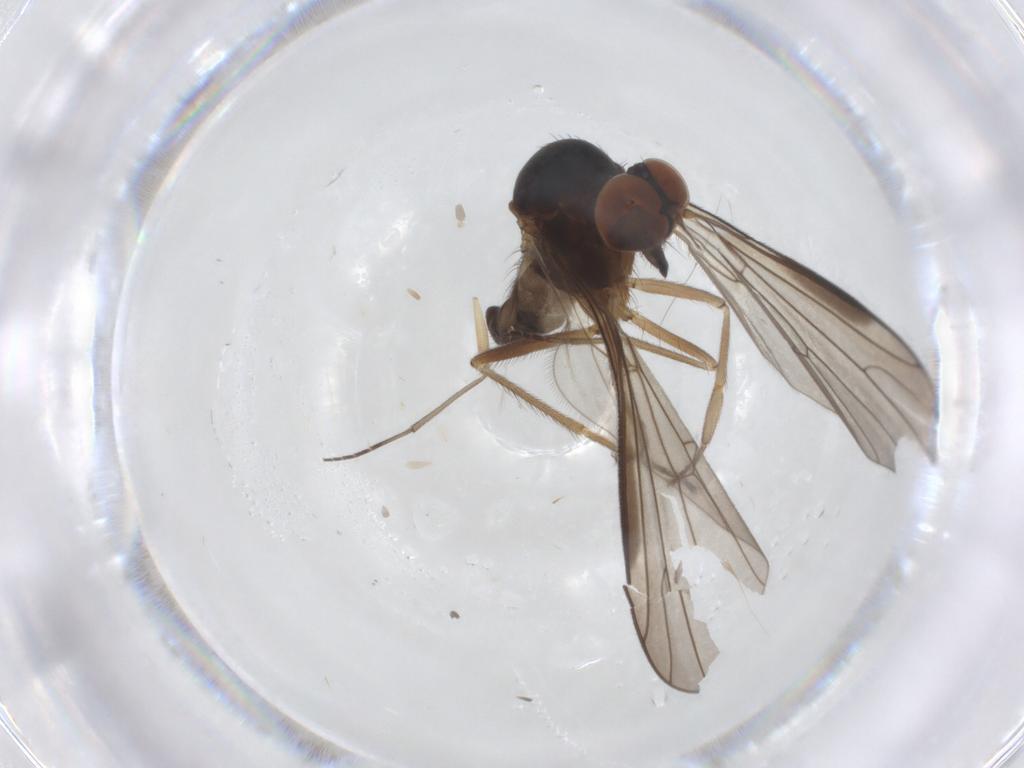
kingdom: Animalia
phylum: Arthropoda
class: Insecta
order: Diptera
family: Empididae
